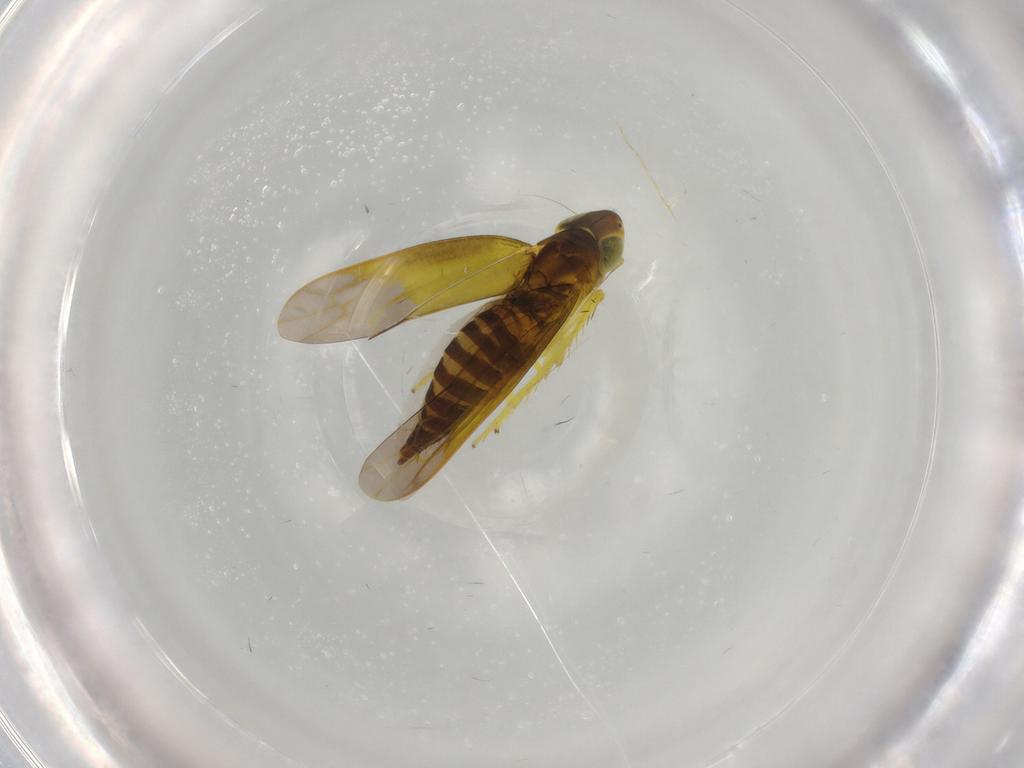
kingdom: Animalia
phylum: Arthropoda
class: Insecta
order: Hemiptera
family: Cicadellidae
